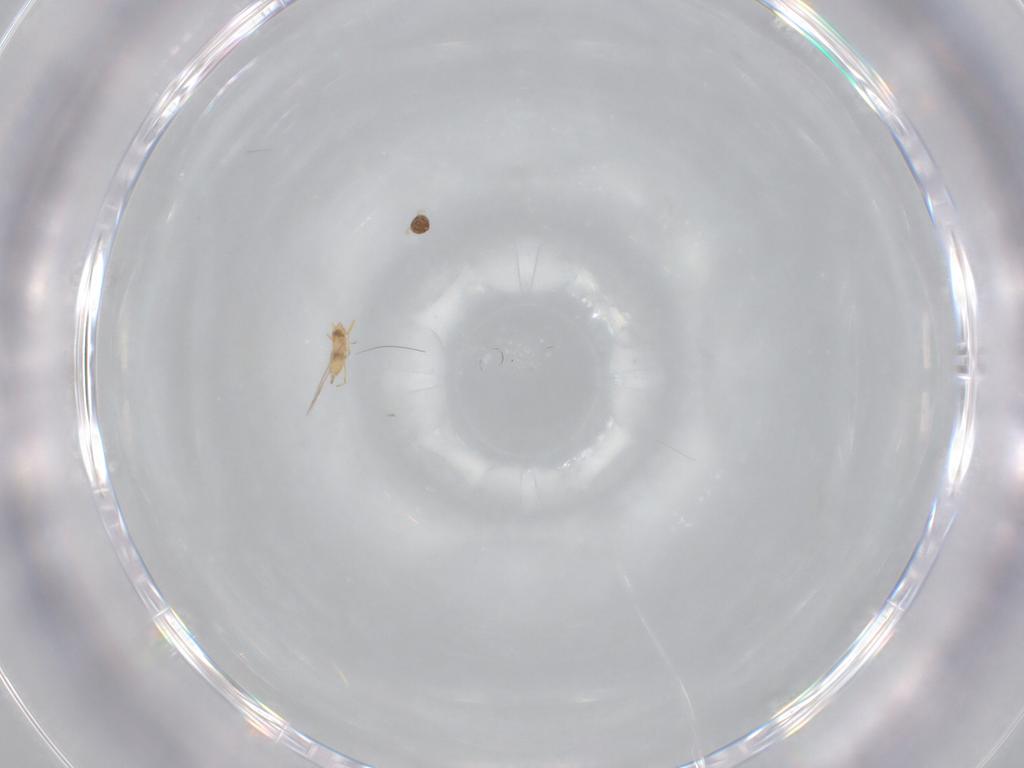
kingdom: Animalia
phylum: Arthropoda
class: Insecta
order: Hymenoptera
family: Mymaridae
